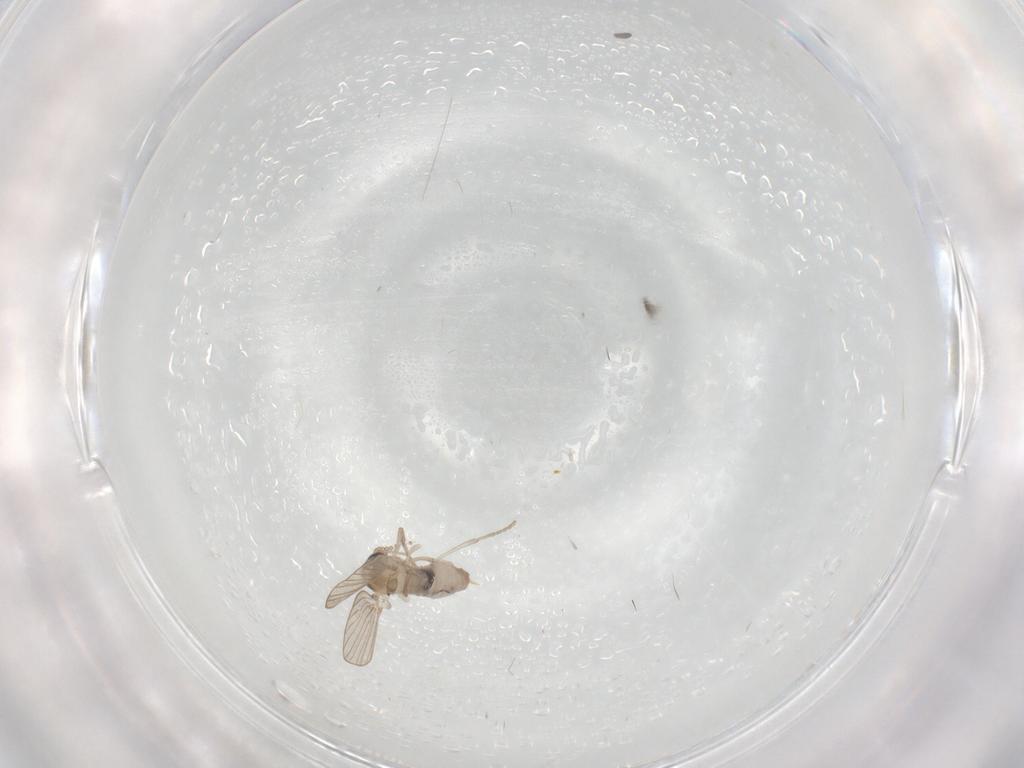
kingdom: Animalia
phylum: Arthropoda
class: Insecta
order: Diptera
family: Psychodidae
